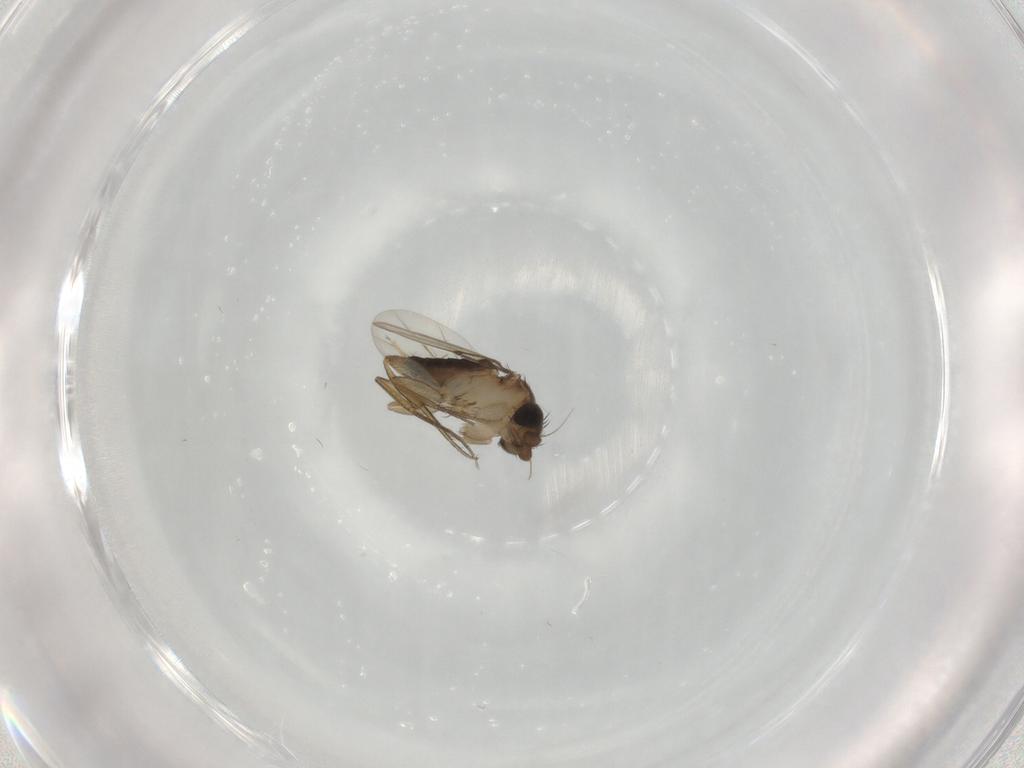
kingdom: Animalia
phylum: Arthropoda
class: Insecta
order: Diptera
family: Phoridae
